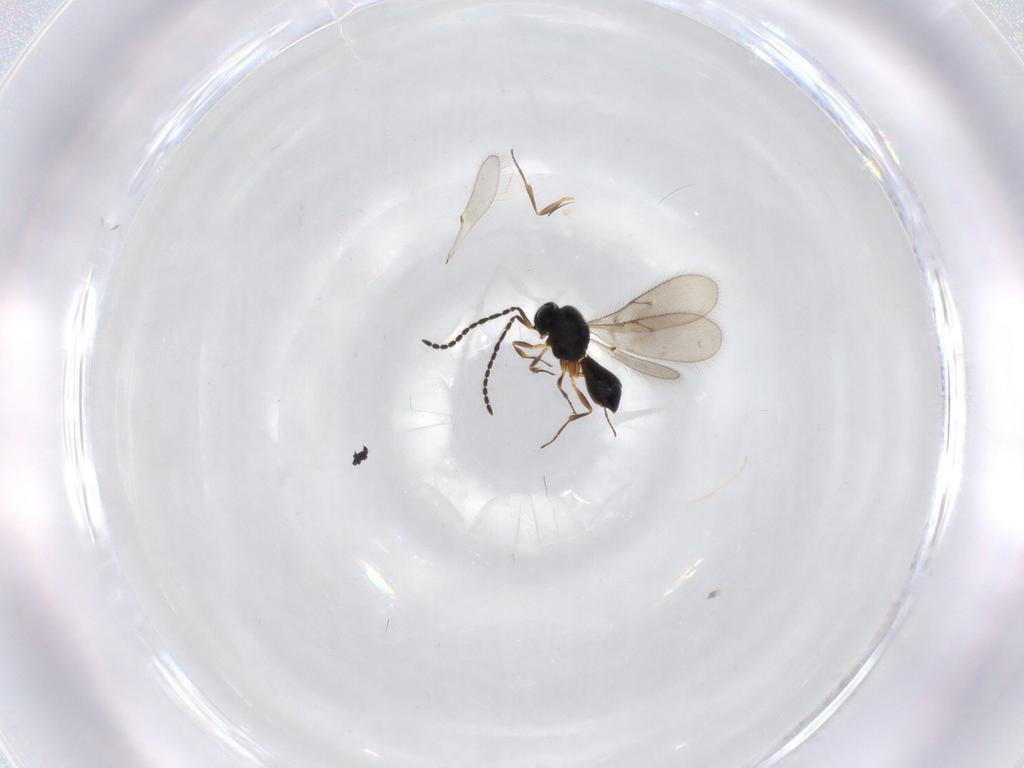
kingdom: Animalia
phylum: Arthropoda
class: Insecta
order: Hymenoptera
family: Scelionidae
